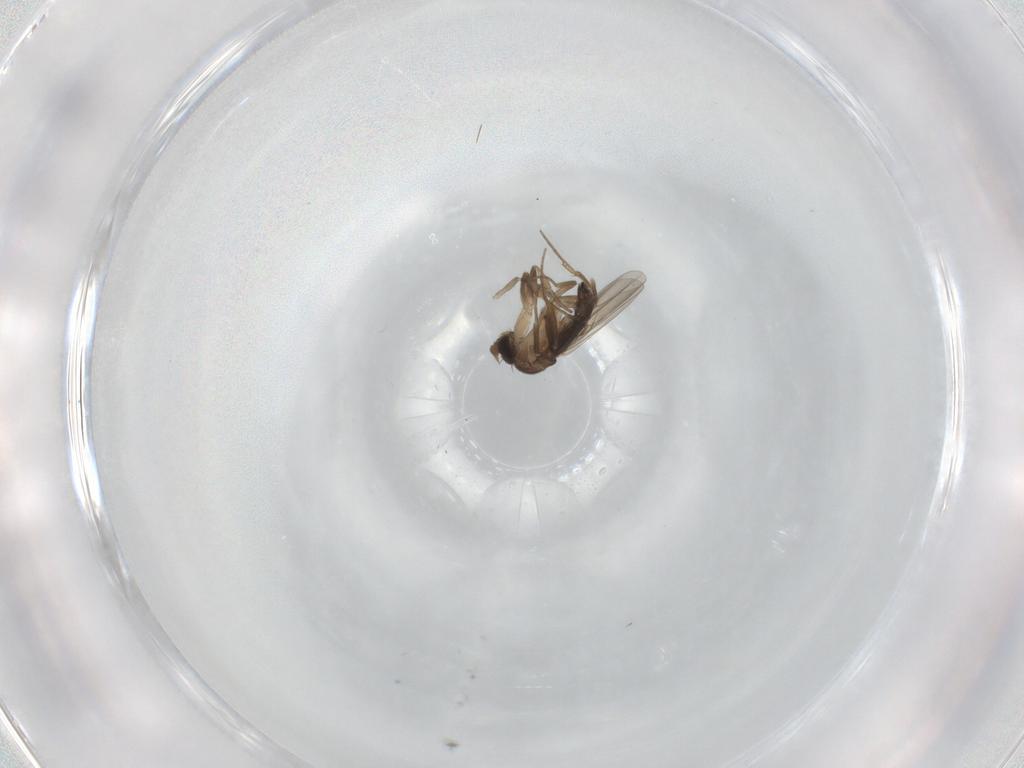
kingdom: Animalia
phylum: Arthropoda
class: Insecta
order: Diptera
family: Phoridae
